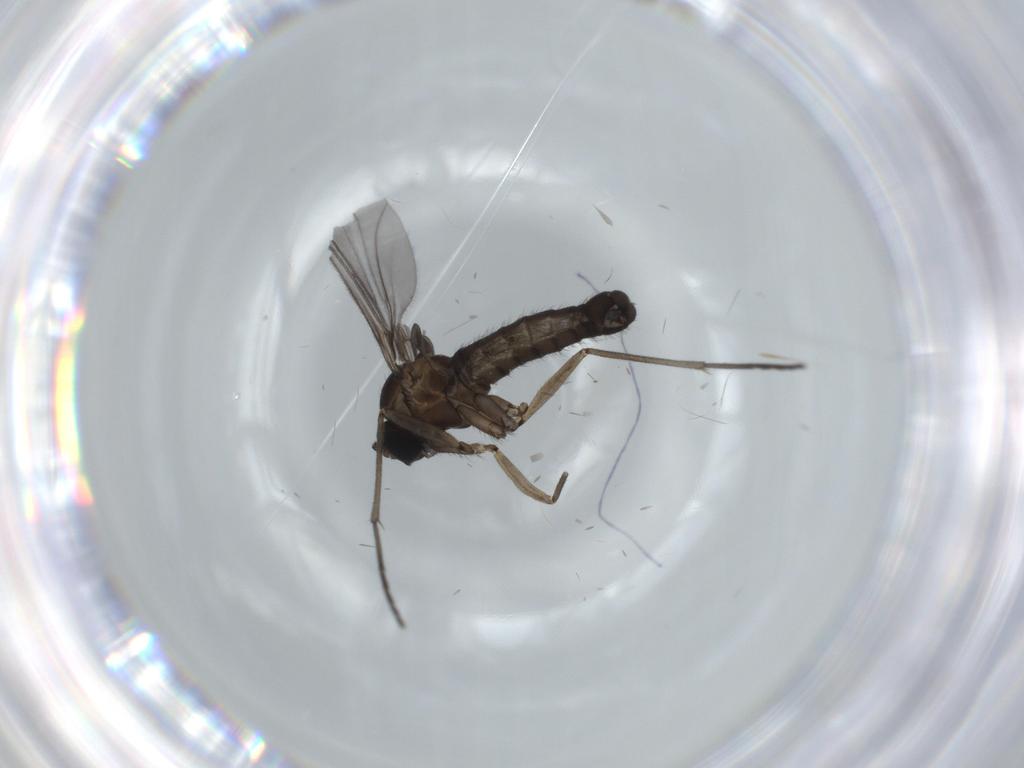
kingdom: Animalia
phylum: Arthropoda
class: Insecta
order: Diptera
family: Sciaridae
